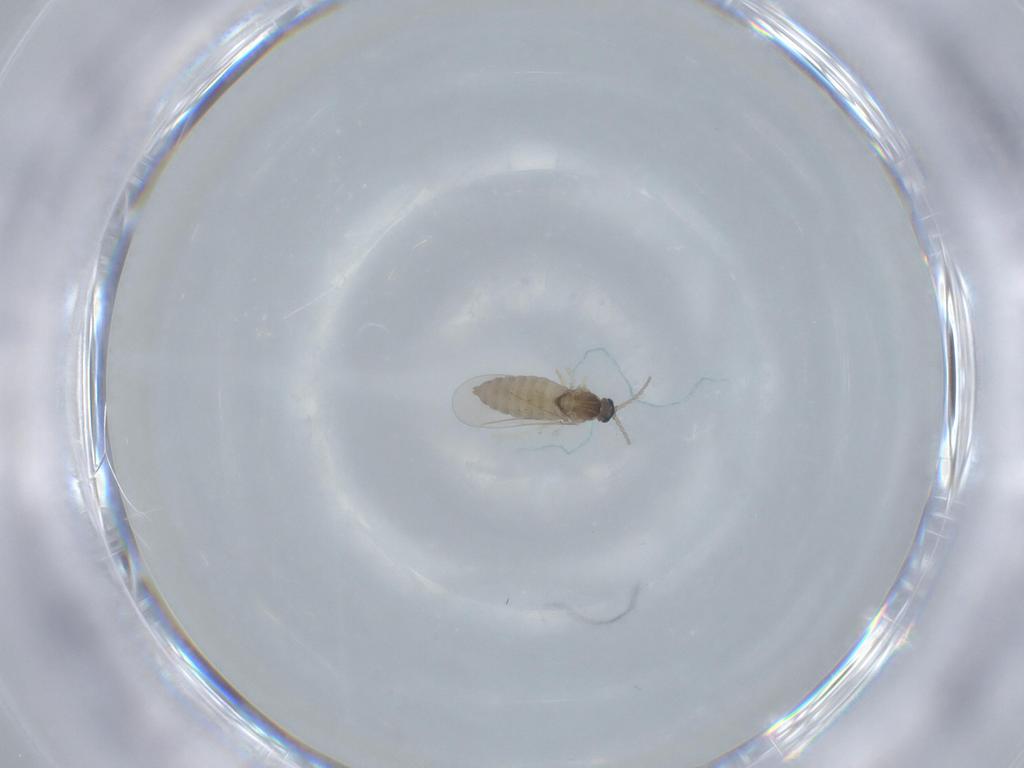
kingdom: Animalia
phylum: Arthropoda
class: Insecta
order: Diptera
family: Cecidomyiidae
